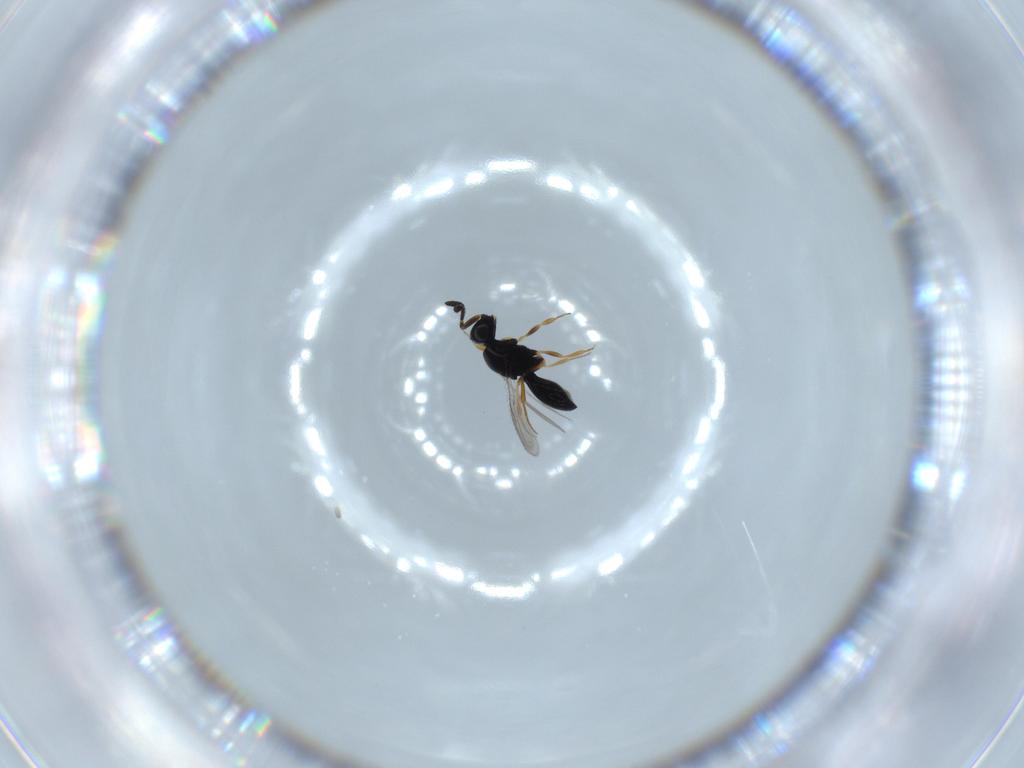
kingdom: Animalia
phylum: Arthropoda
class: Insecta
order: Hymenoptera
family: Scelionidae
